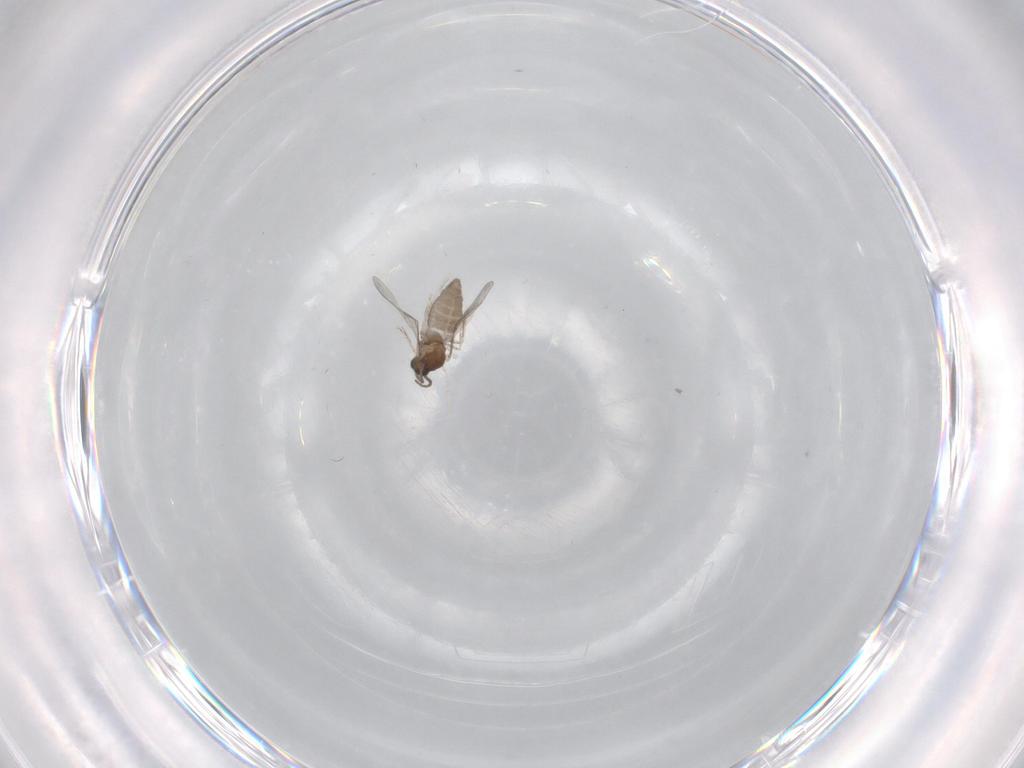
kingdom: Animalia
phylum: Arthropoda
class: Insecta
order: Diptera
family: Cecidomyiidae
